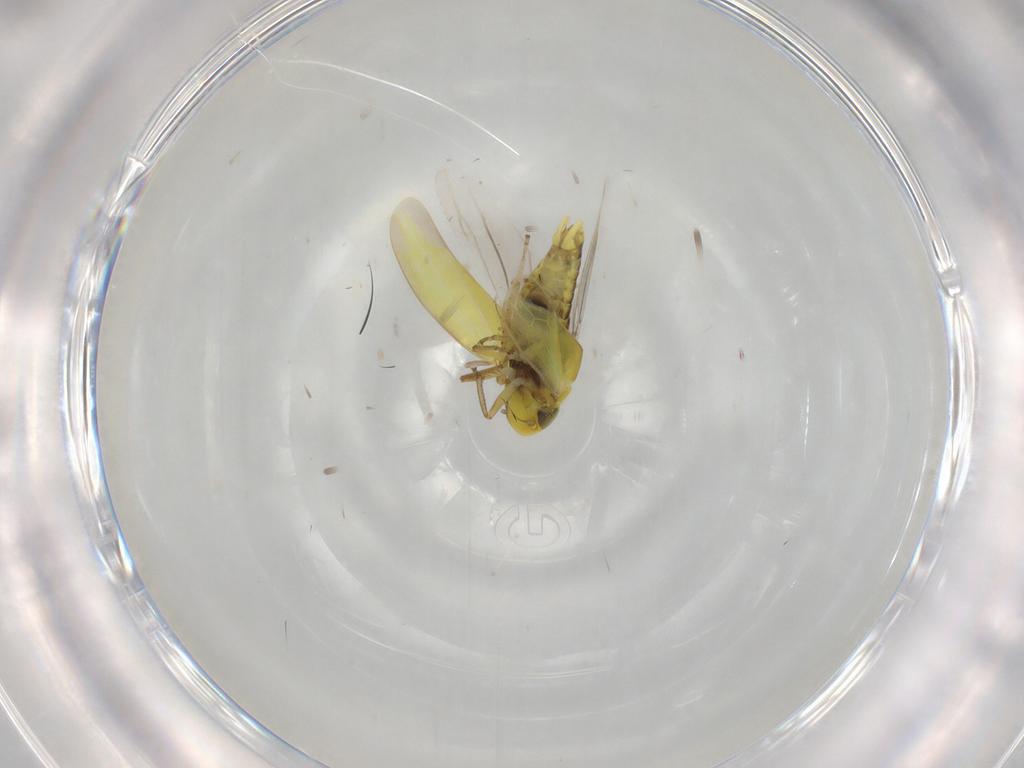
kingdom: Animalia
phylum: Arthropoda
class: Insecta
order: Hemiptera
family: Cicadellidae
